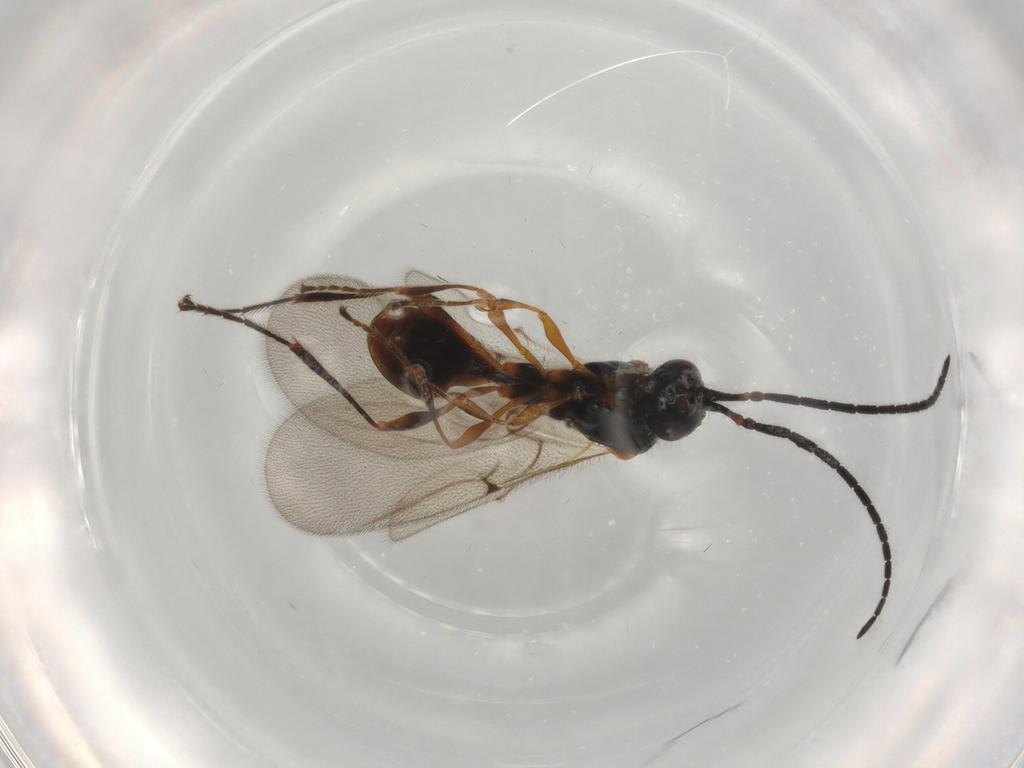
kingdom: Animalia
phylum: Arthropoda
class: Insecta
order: Hymenoptera
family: Diapriidae
